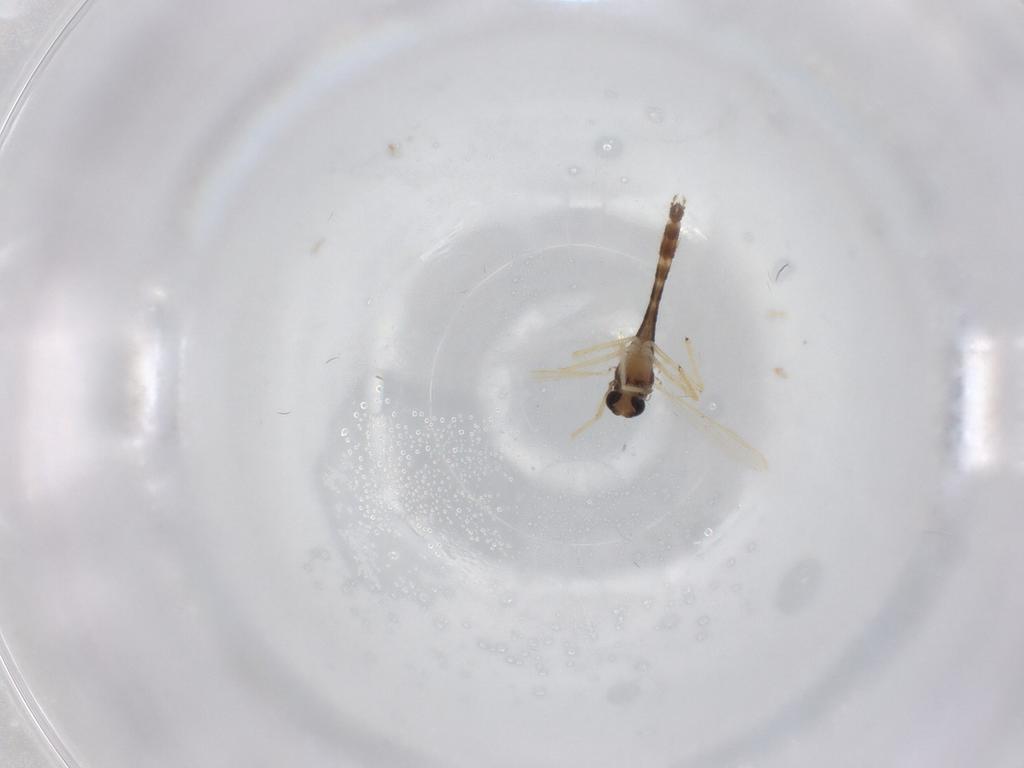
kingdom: Animalia
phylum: Arthropoda
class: Insecta
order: Diptera
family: Chironomidae
